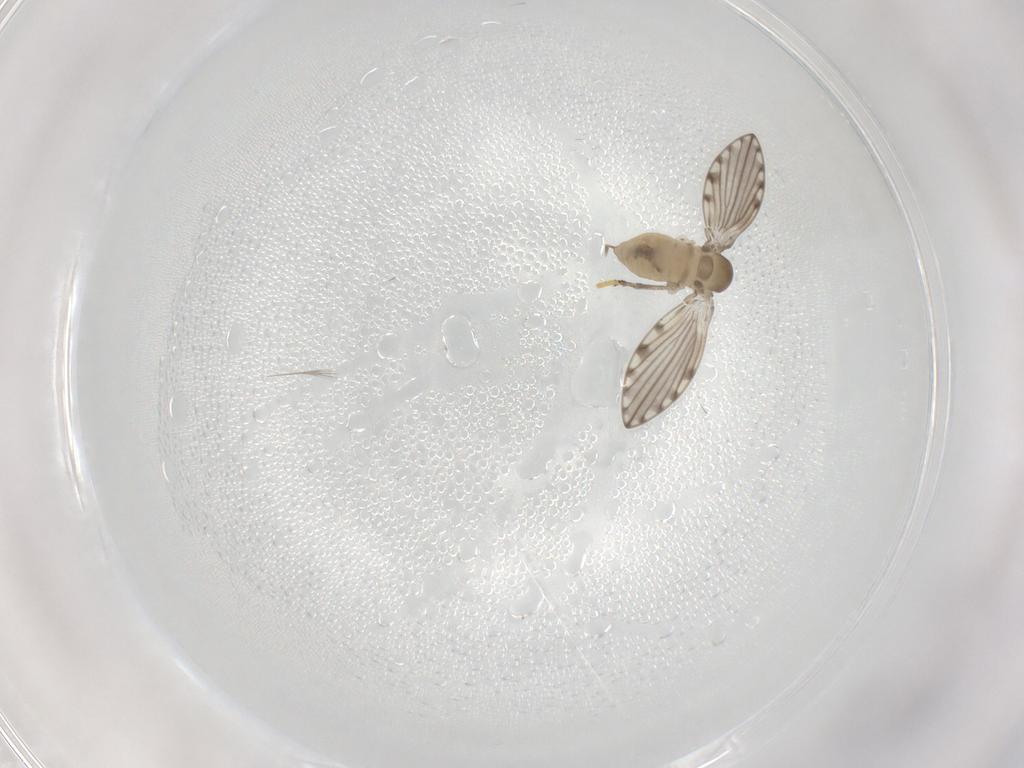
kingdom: Animalia
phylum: Arthropoda
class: Insecta
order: Diptera
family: Psychodidae
